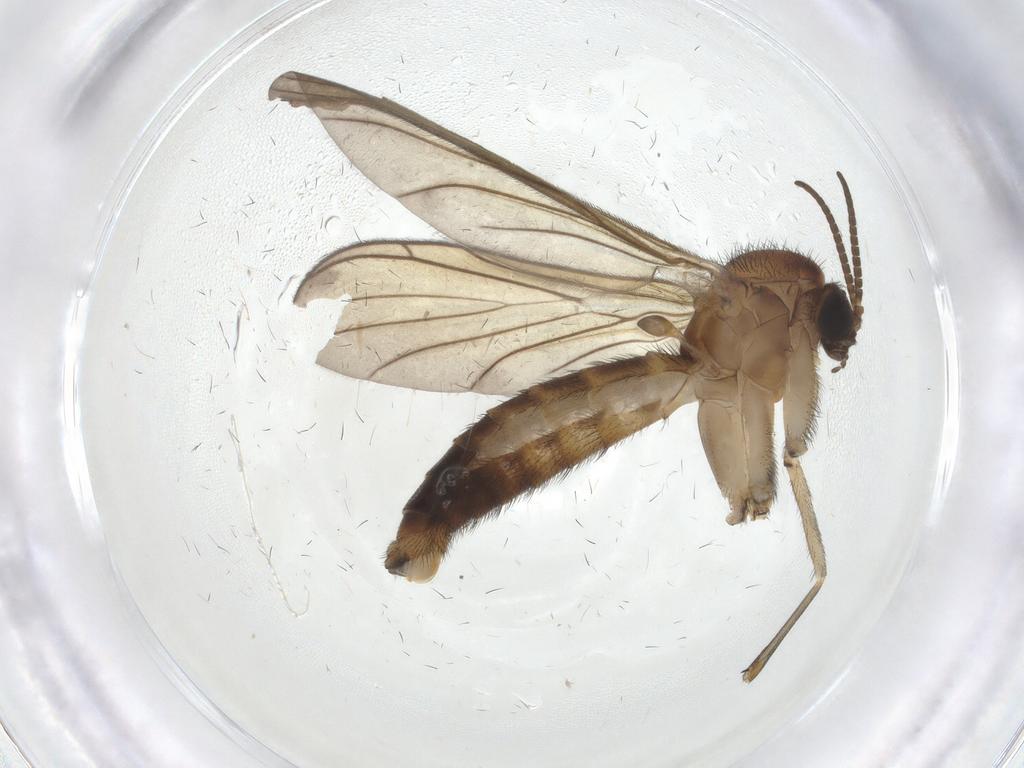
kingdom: Animalia
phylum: Arthropoda
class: Insecta
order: Diptera
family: Keroplatidae
